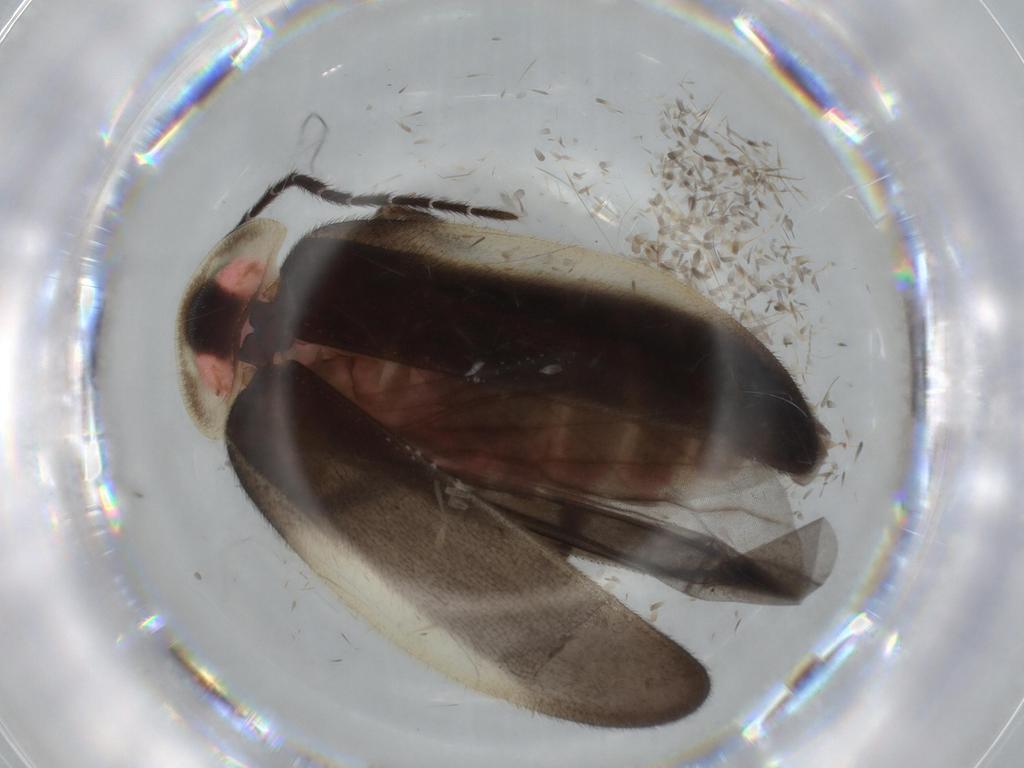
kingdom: Animalia
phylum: Arthropoda
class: Insecta
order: Coleoptera
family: Lampyridae
